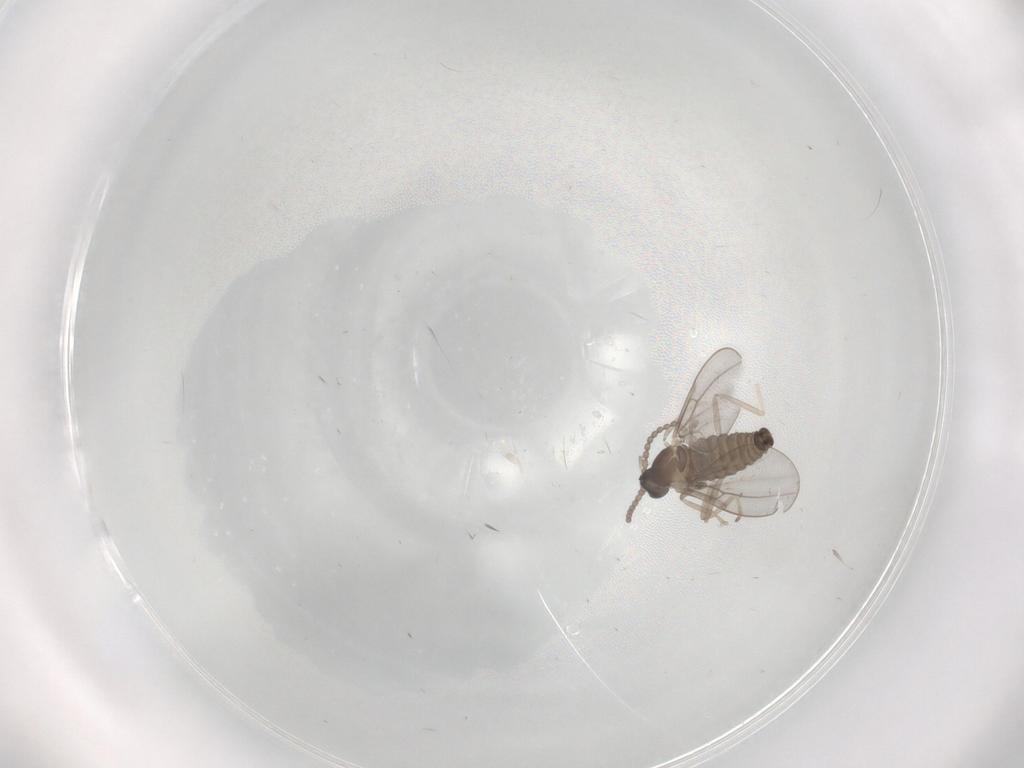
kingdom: Animalia
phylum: Arthropoda
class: Insecta
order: Diptera
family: Cecidomyiidae
